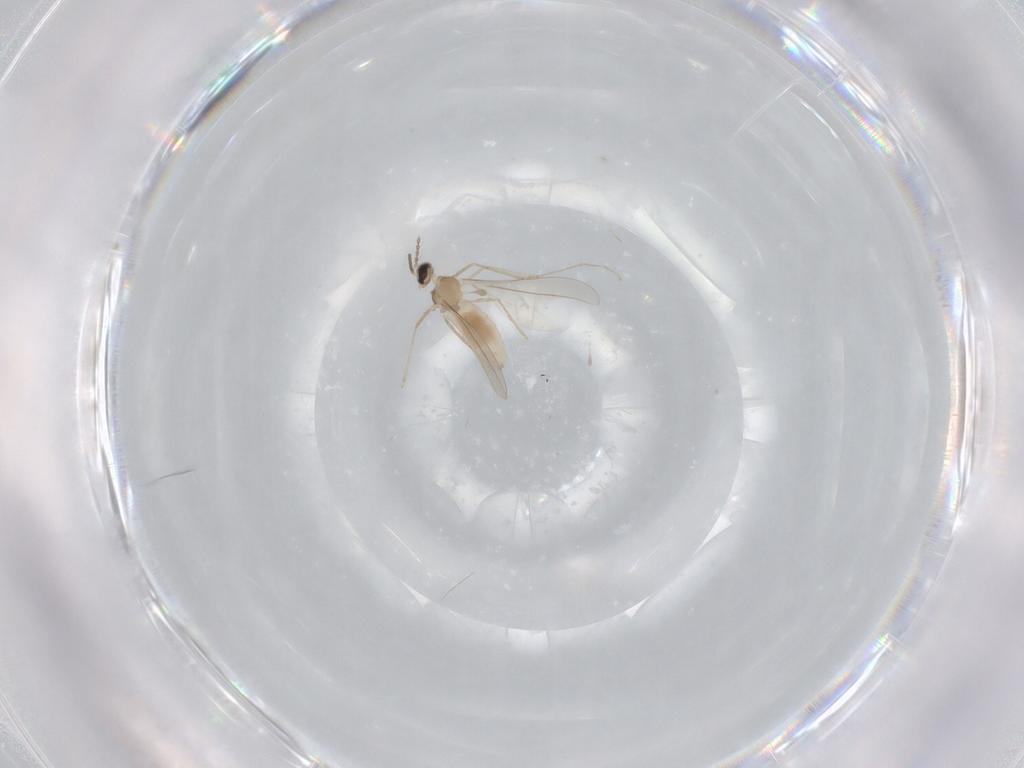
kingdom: Animalia
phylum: Arthropoda
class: Insecta
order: Diptera
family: Cecidomyiidae
